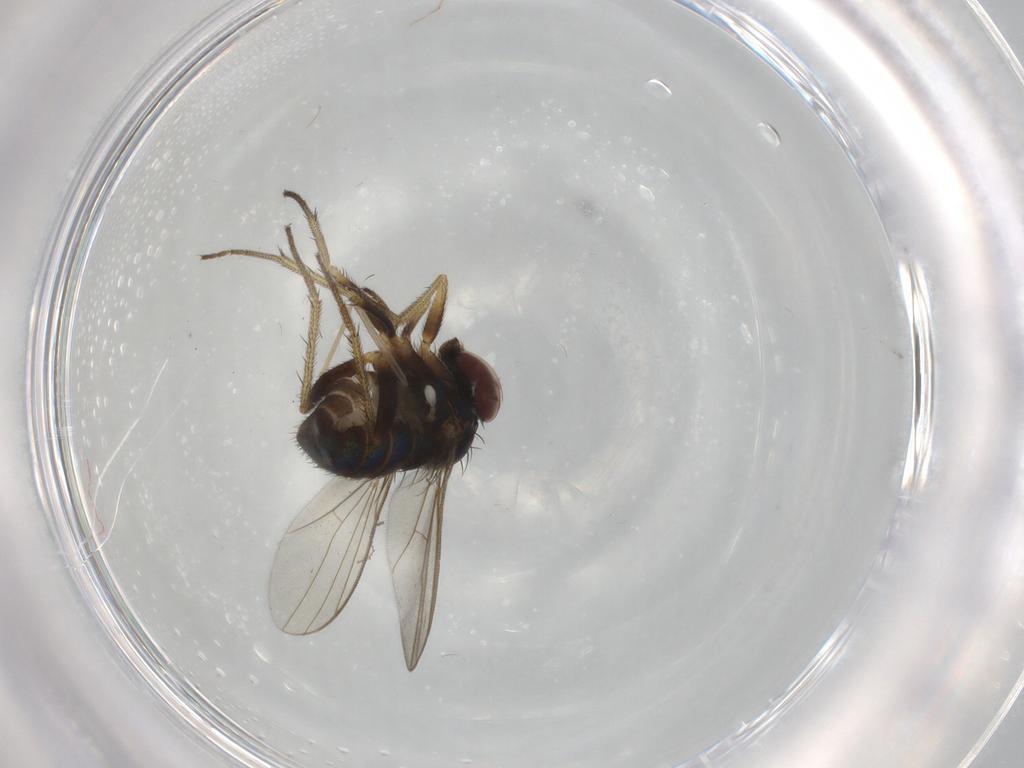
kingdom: Animalia
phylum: Arthropoda
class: Insecta
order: Diptera
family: Cecidomyiidae
